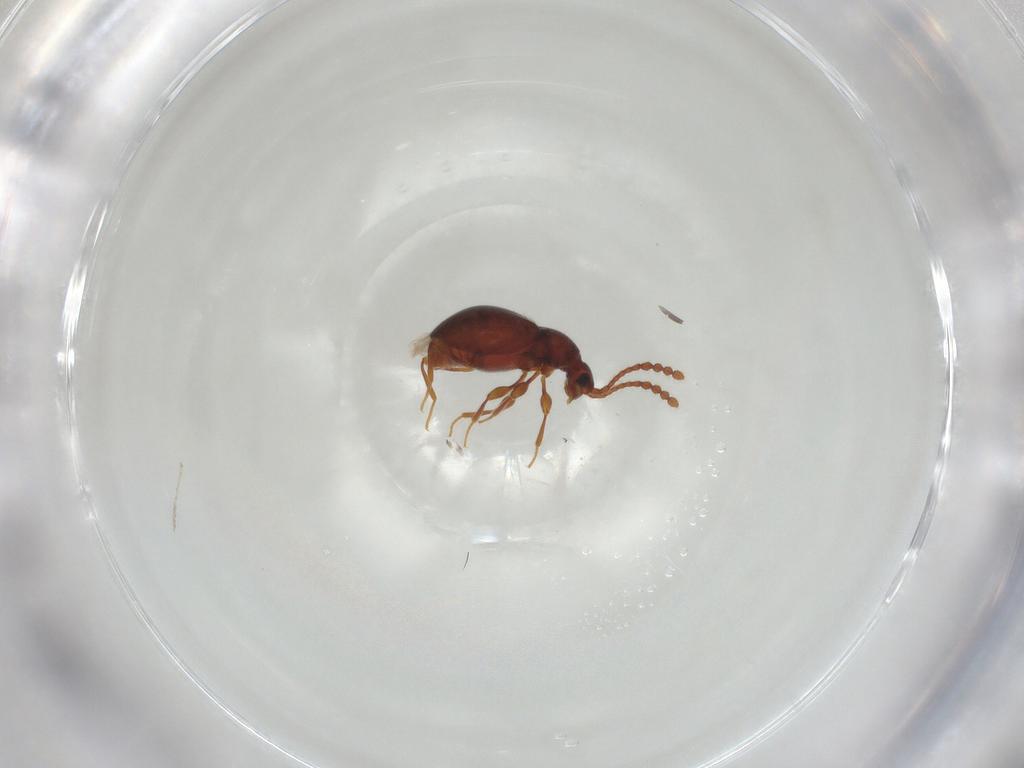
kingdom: Animalia
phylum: Arthropoda
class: Insecta
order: Coleoptera
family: Staphylinidae
